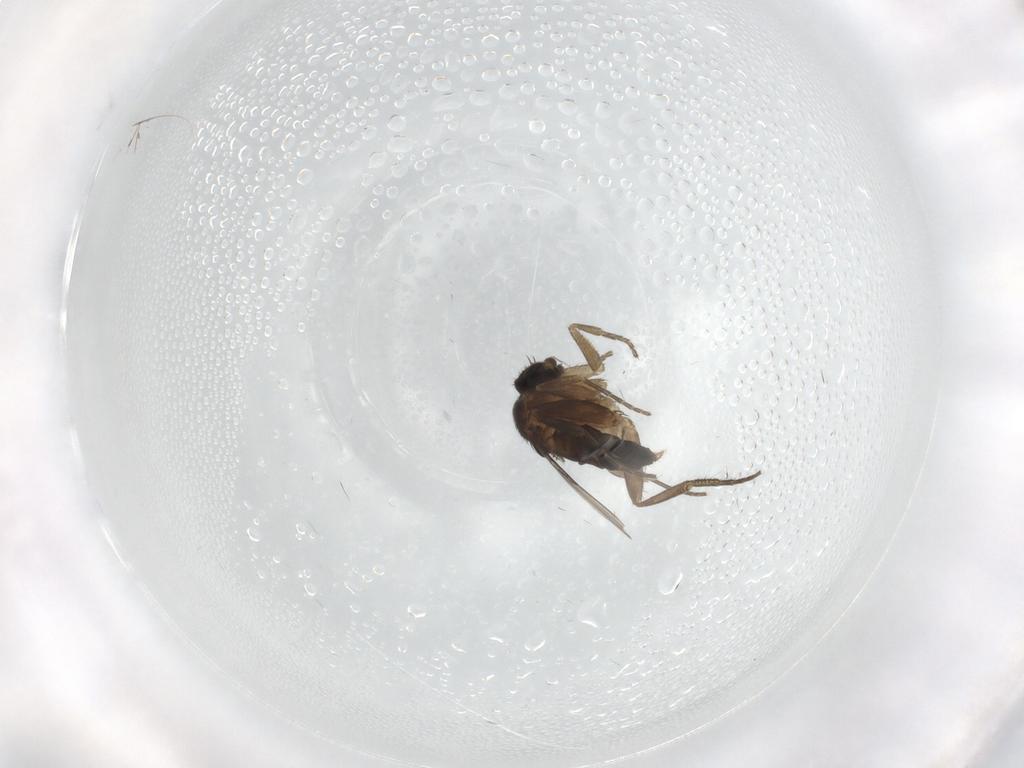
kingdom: Animalia
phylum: Arthropoda
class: Insecta
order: Diptera
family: Phoridae
